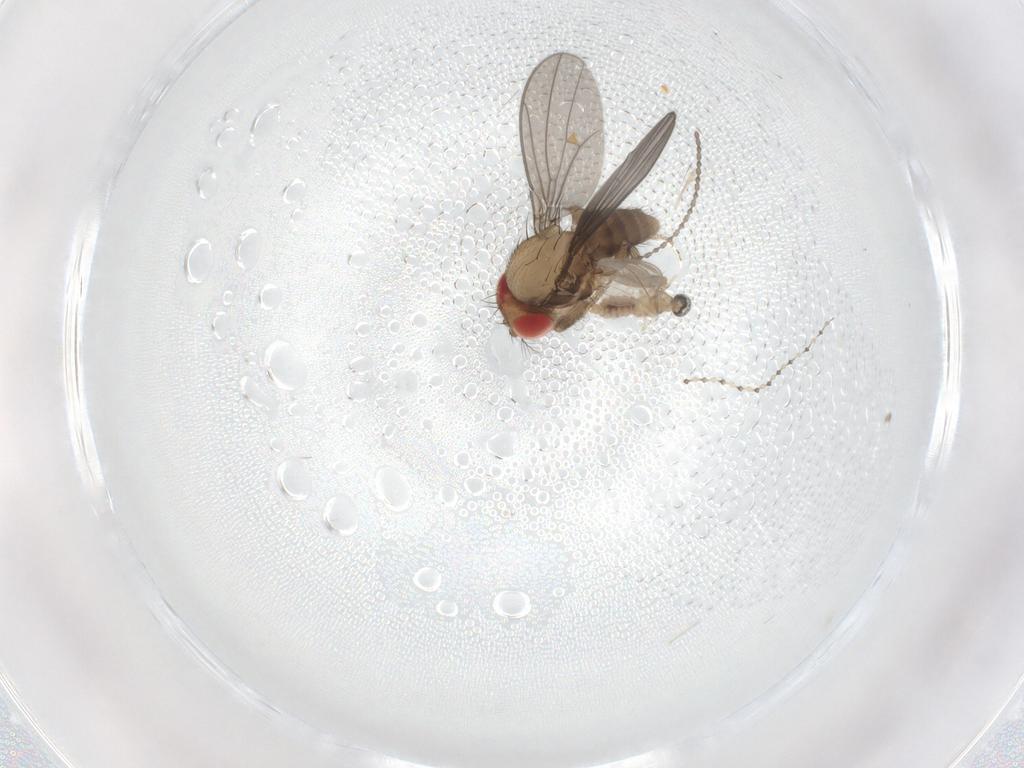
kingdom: Animalia
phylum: Arthropoda
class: Insecta
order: Diptera
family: Drosophilidae
